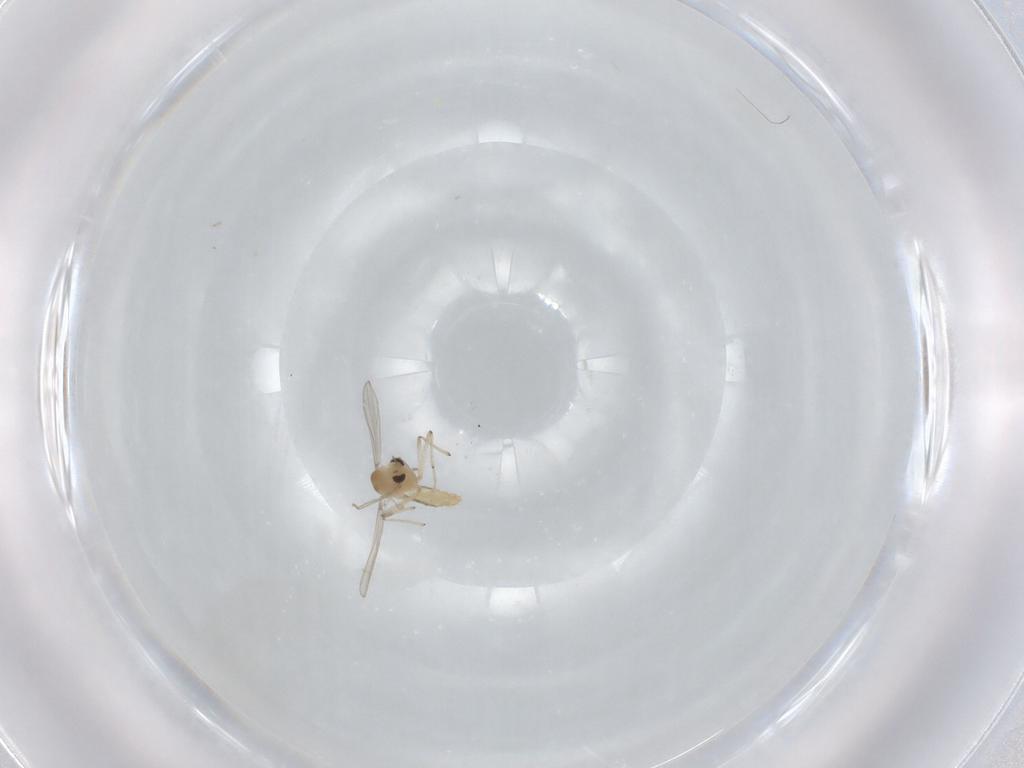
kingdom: Animalia
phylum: Arthropoda
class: Insecta
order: Diptera
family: Chironomidae
